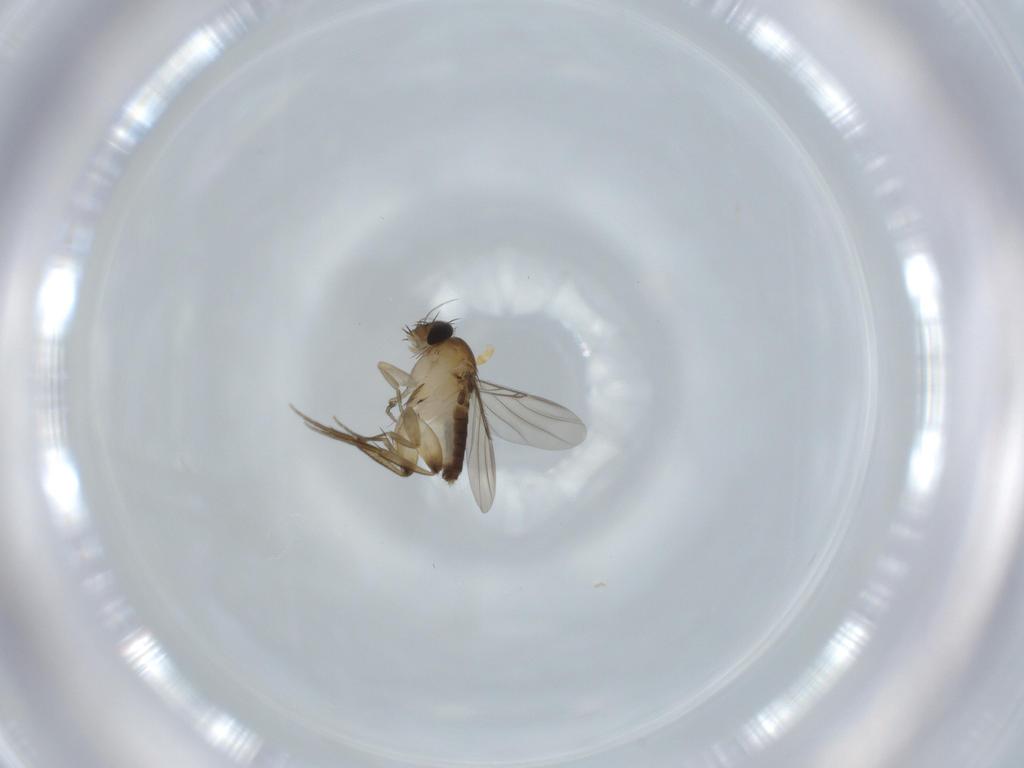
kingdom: Animalia
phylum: Arthropoda
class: Insecta
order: Diptera
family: Phoridae
